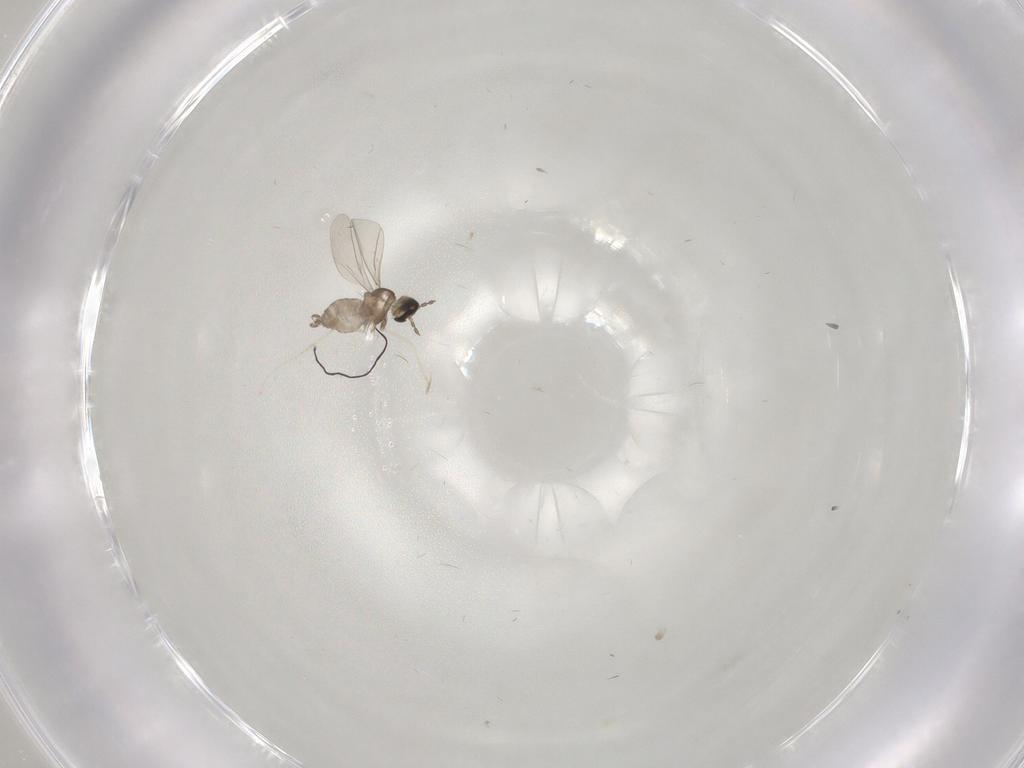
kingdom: Animalia
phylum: Arthropoda
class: Insecta
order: Diptera
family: Cecidomyiidae
